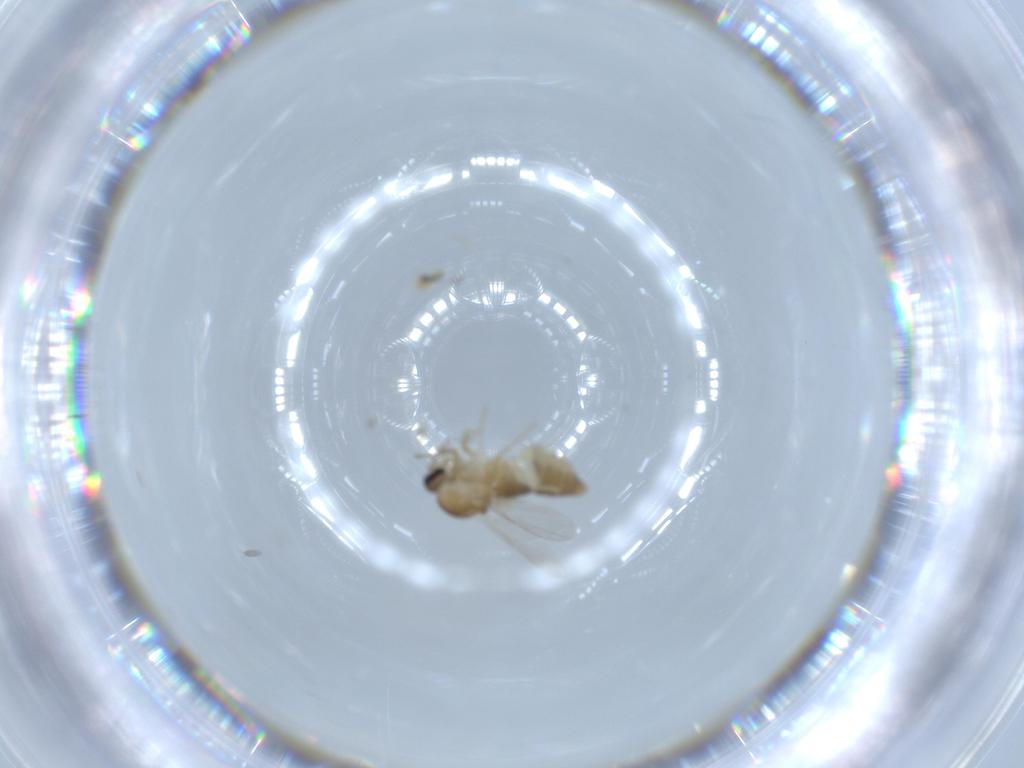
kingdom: Animalia
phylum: Arthropoda
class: Insecta
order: Diptera
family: Ceratopogonidae
